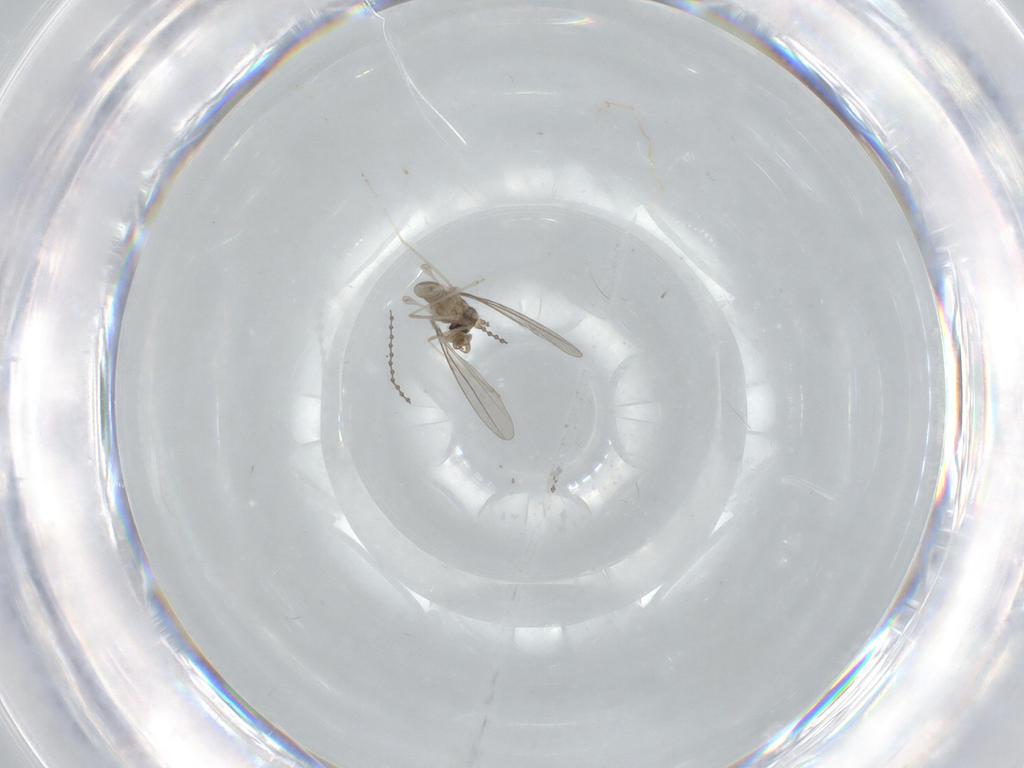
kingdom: Animalia
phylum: Arthropoda
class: Insecta
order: Diptera
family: Cecidomyiidae
